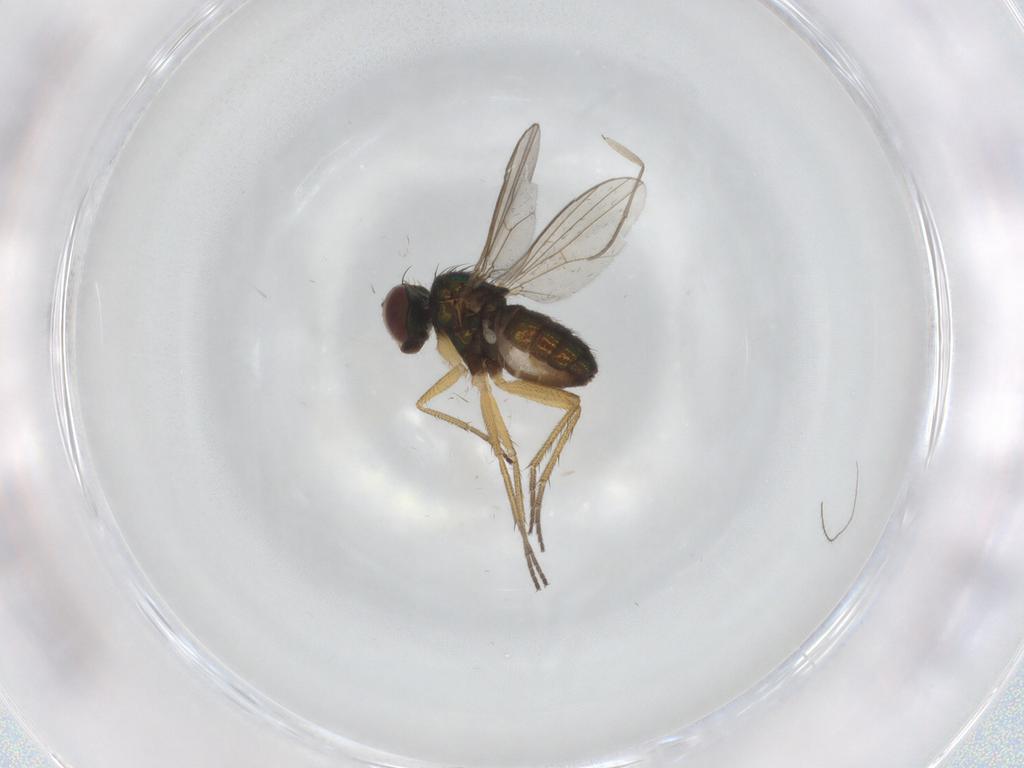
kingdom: Animalia
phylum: Arthropoda
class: Insecta
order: Diptera
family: Sciaridae
